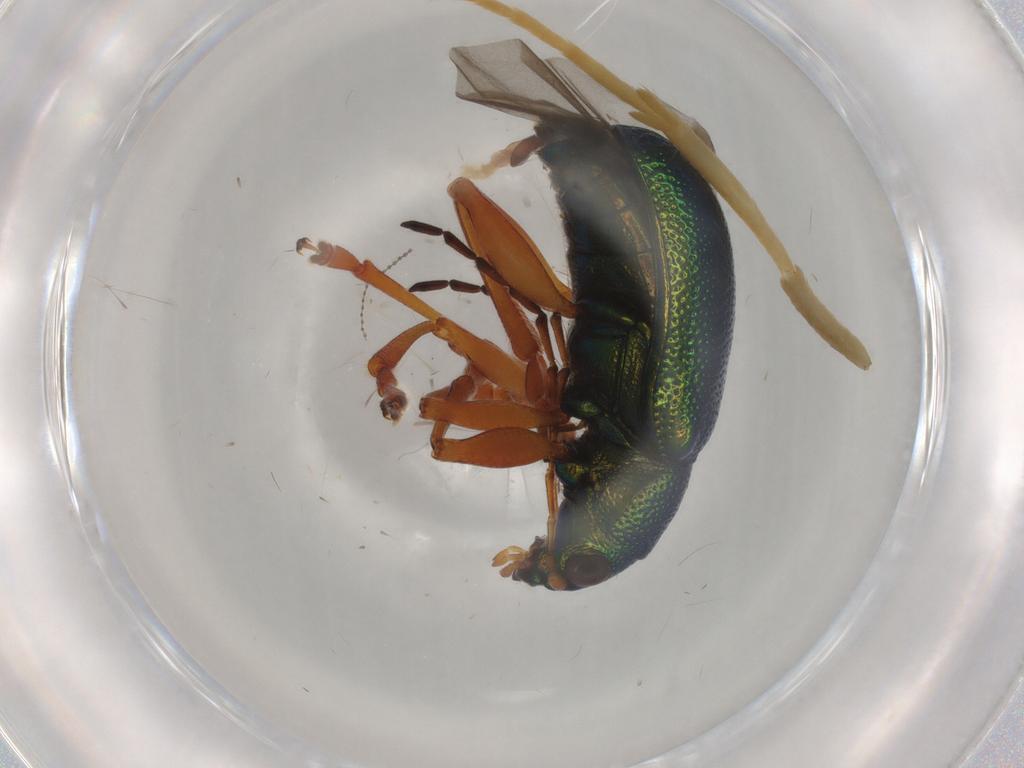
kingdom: Animalia
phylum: Arthropoda
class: Insecta
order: Coleoptera
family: Chrysomelidae
